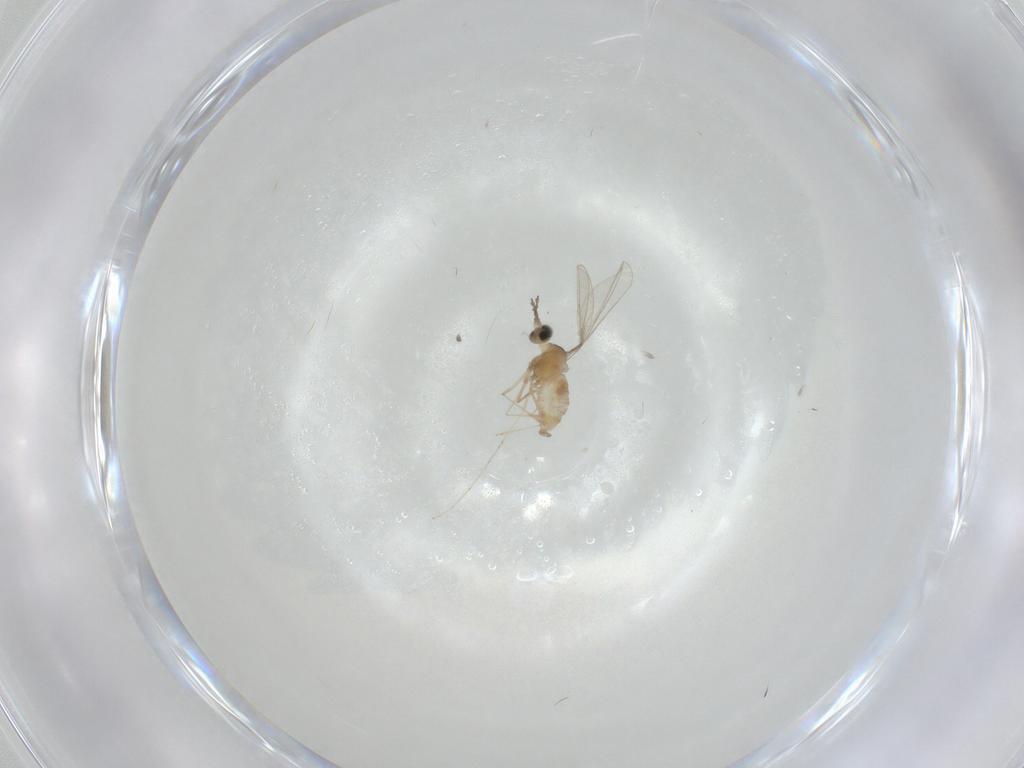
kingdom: Animalia
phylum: Arthropoda
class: Insecta
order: Diptera
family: Cecidomyiidae
